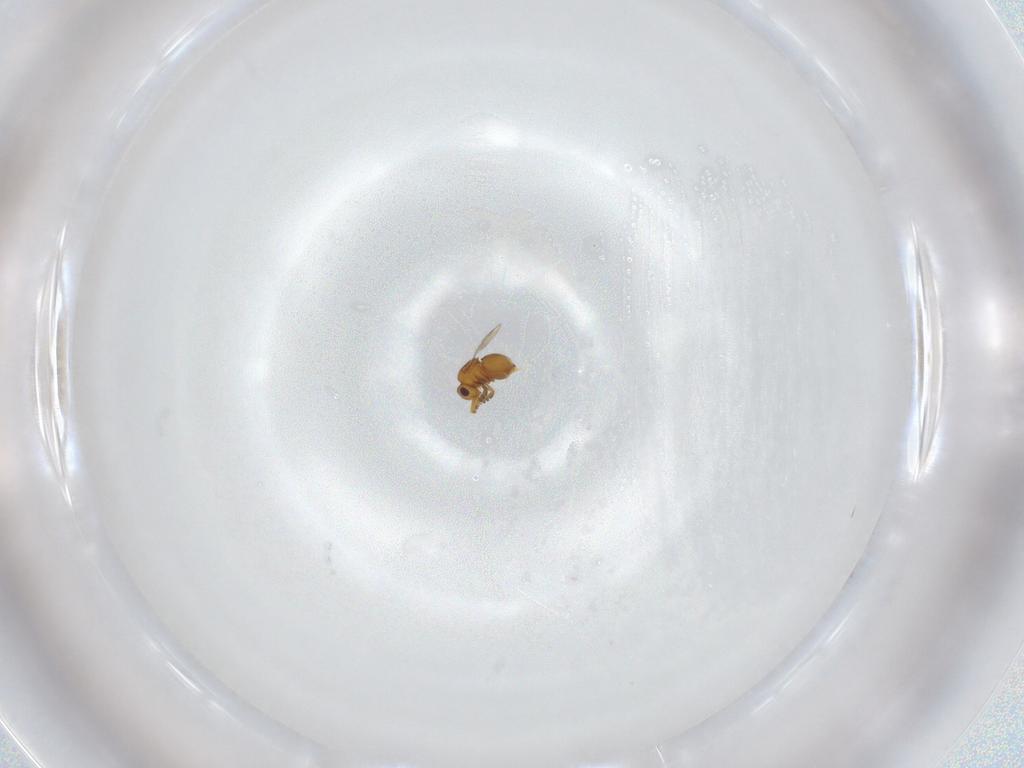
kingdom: Animalia
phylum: Arthropoda
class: Insecta
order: Hymenoptera
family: Ceraphronidae
